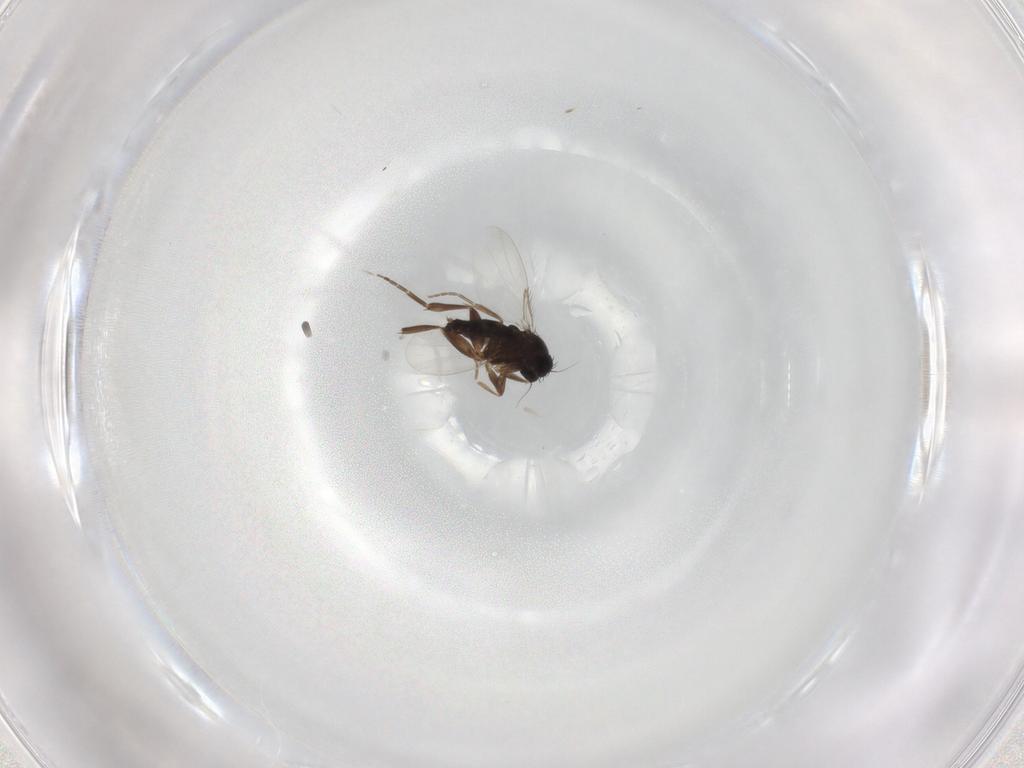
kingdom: Animalia
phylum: Arthropoda
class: Insecta
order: Diptera
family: Phoridae
